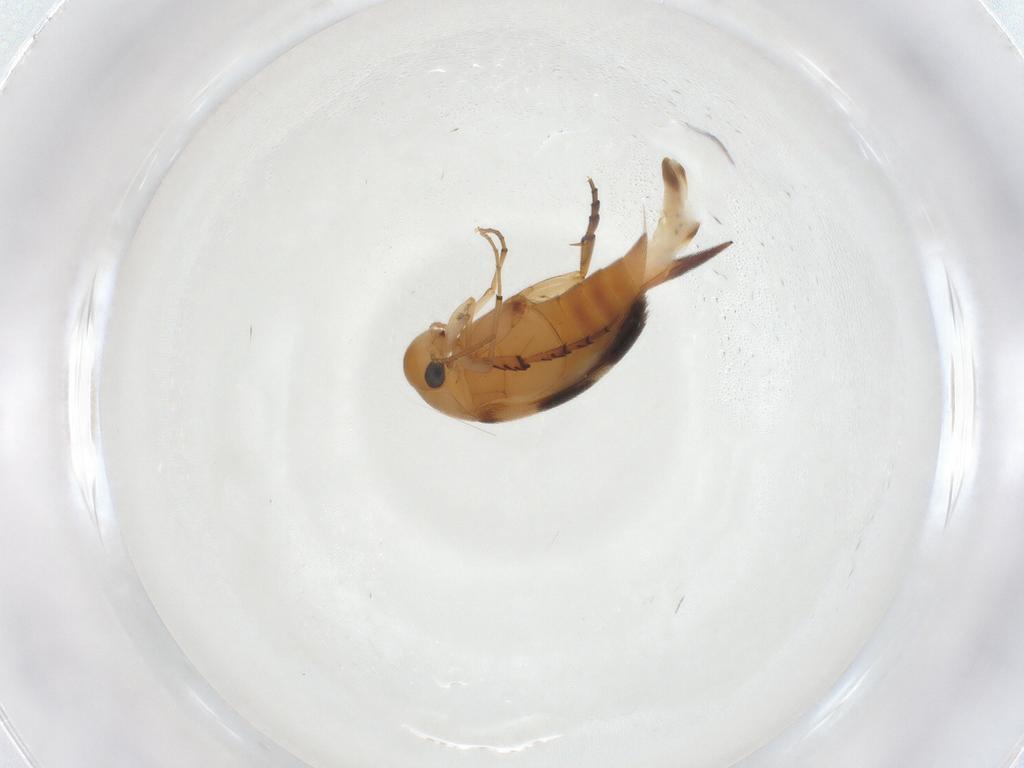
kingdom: Animalia
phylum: Arthropoda
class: Insecta
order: Coleoptera
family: Mordellidae
